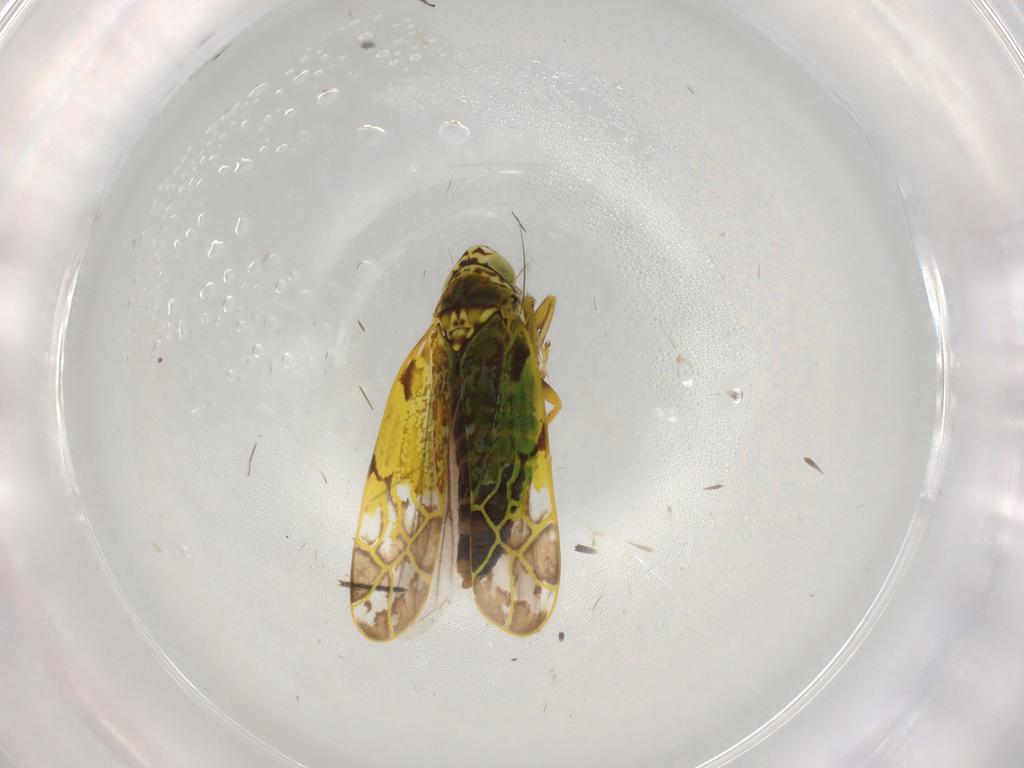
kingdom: Animalia
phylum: Arthropoda
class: Insecta
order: Hemiptera
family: Cicadellidae
